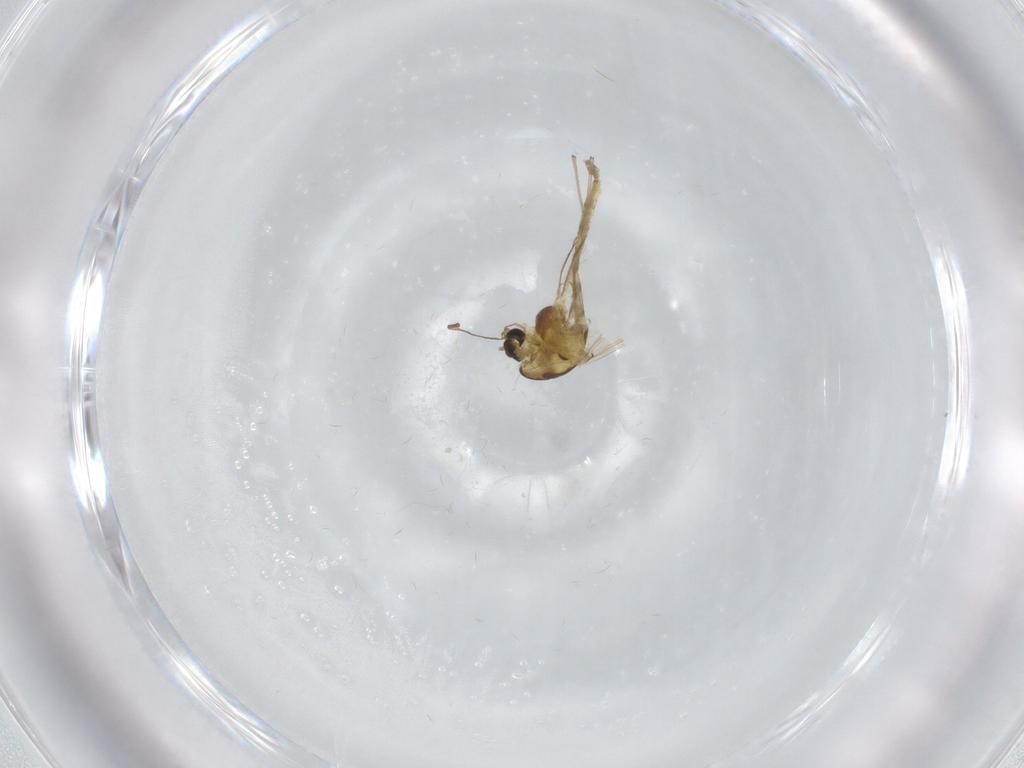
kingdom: Animalia
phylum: Arthropoda
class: Insecta
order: Diptera
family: Chironomidae
